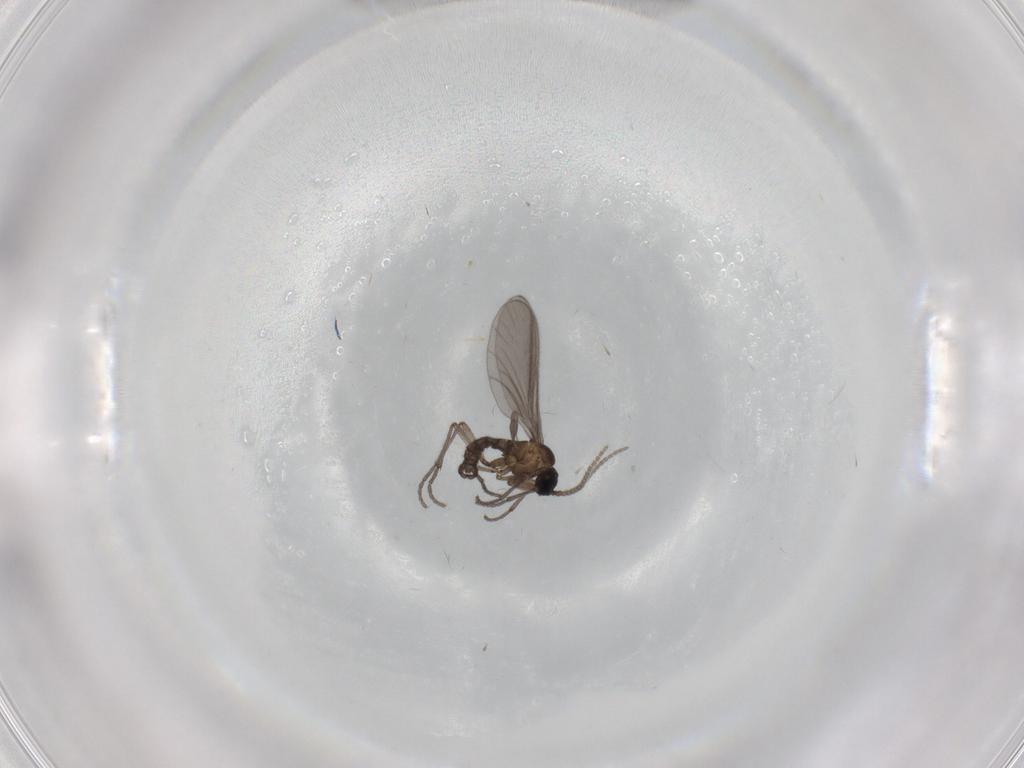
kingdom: Animalia
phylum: Arthropoda
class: Insecta
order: Diptera
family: Sciaridae
